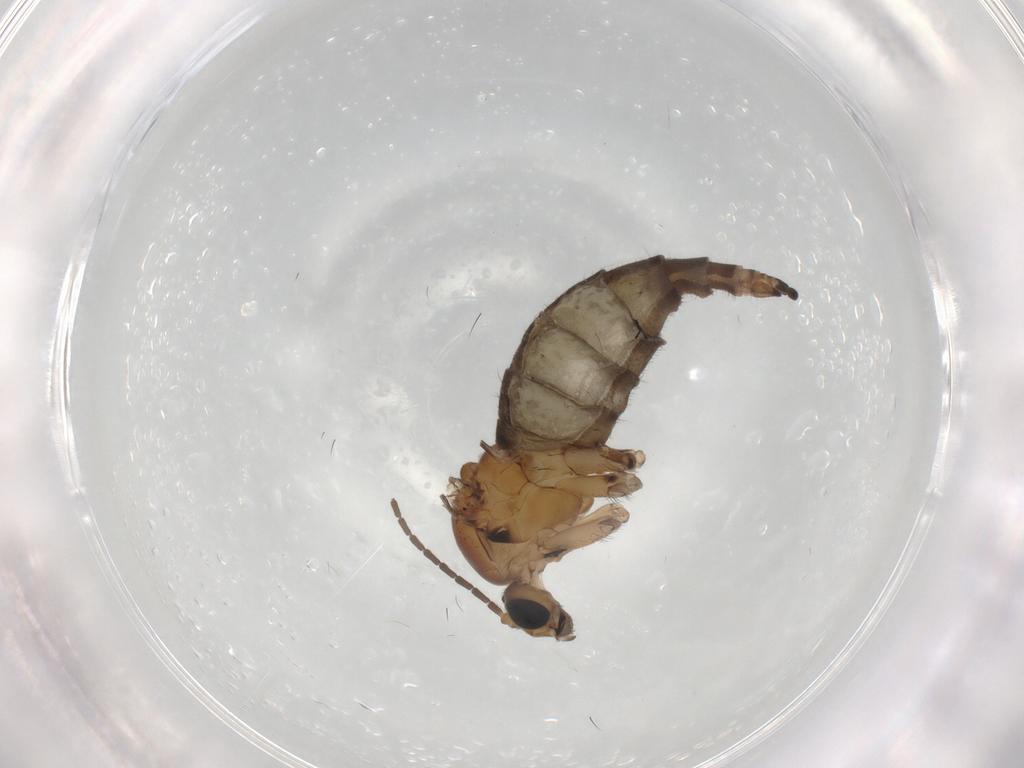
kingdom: Animalia
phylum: Arthropoda
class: Insecta
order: Diptera
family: Sciaridae
